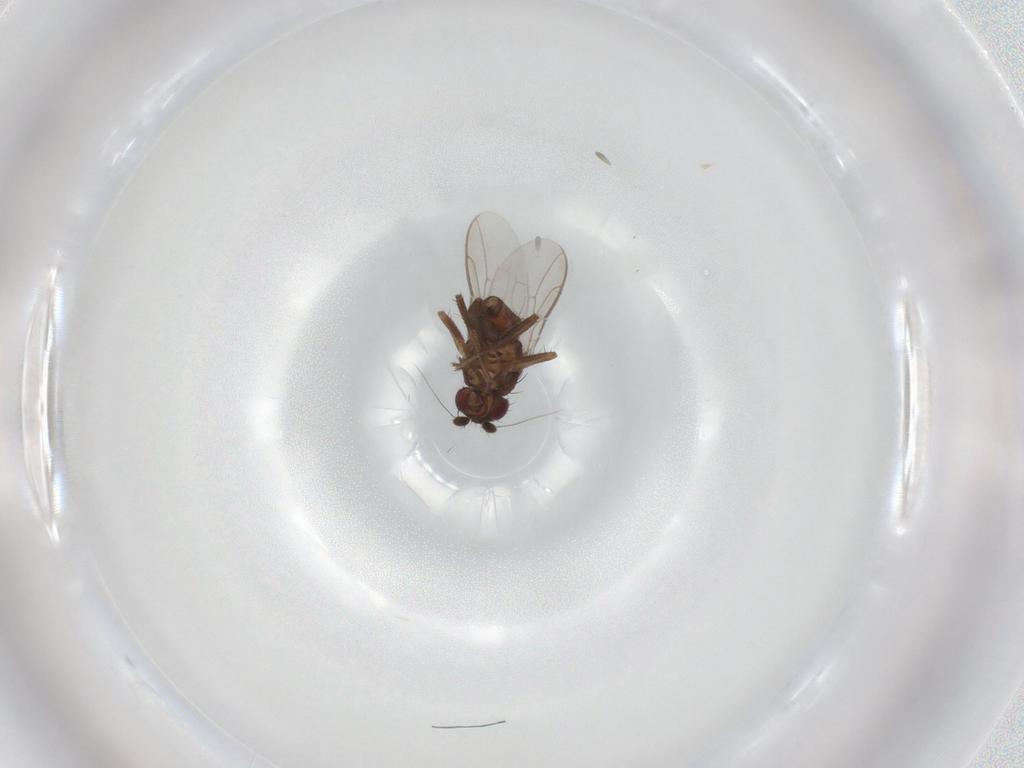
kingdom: Animalia
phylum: Arthropoda
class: Insecta
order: Diptera
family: Sphaeroceridae
